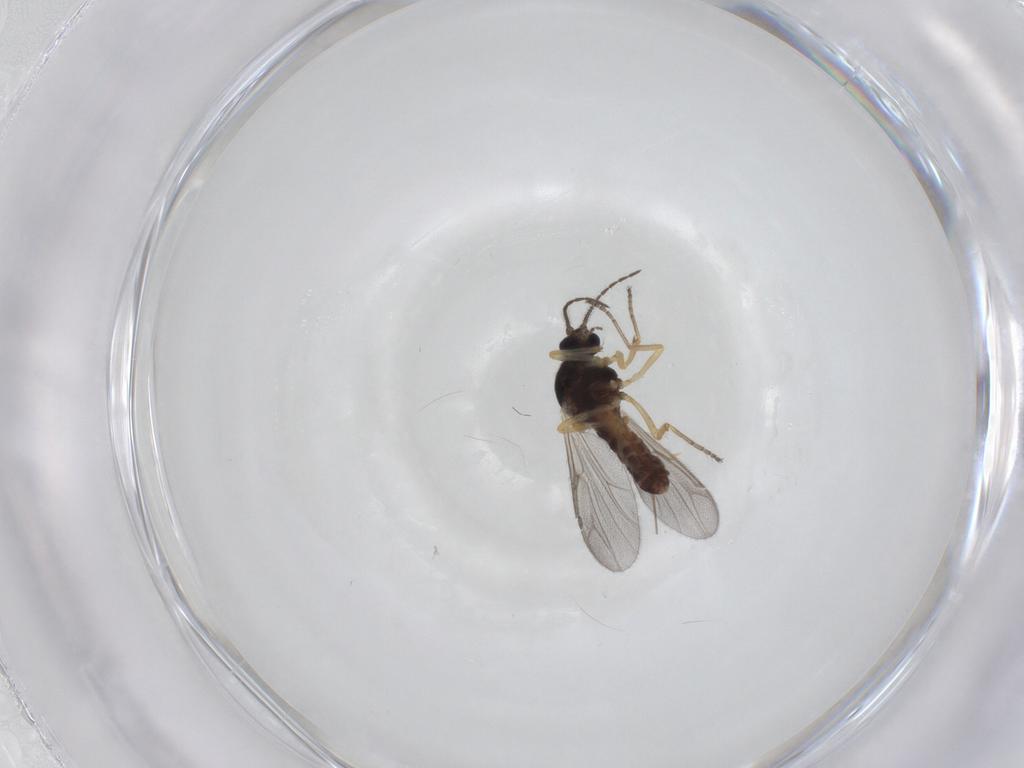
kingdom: Animalia
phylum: Arthropoda
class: Insecta
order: Diptera
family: Ceratopogonidae
